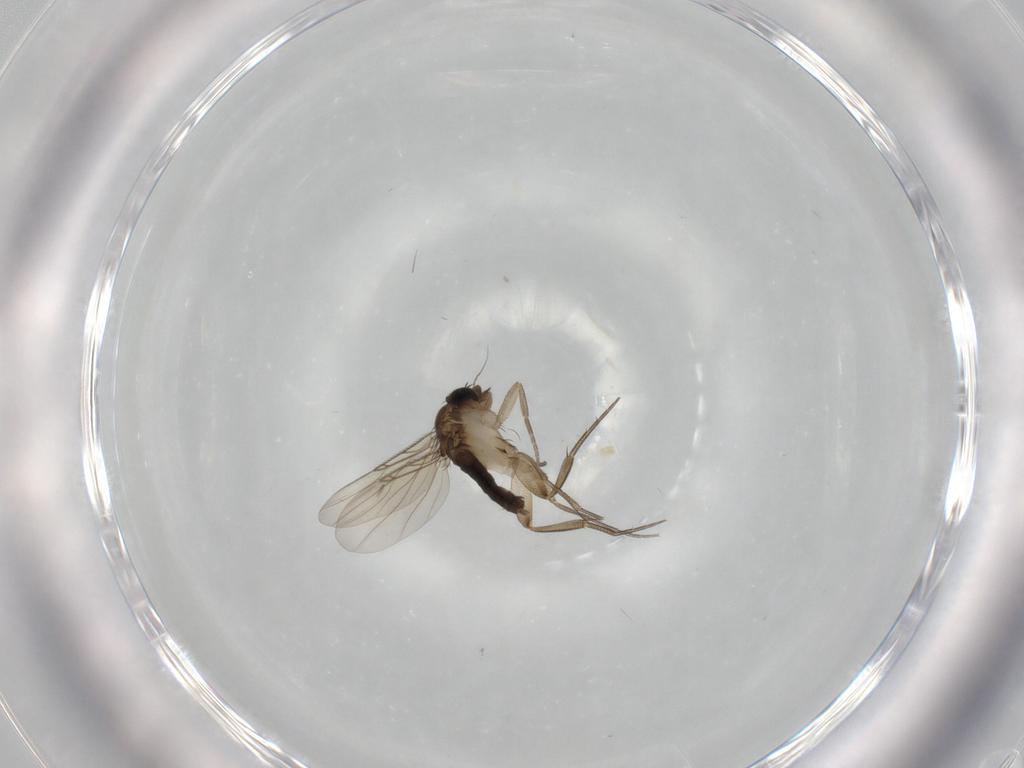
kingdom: Animalia
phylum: Arthropoda
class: Insecta
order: Diptera
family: Phoridae
